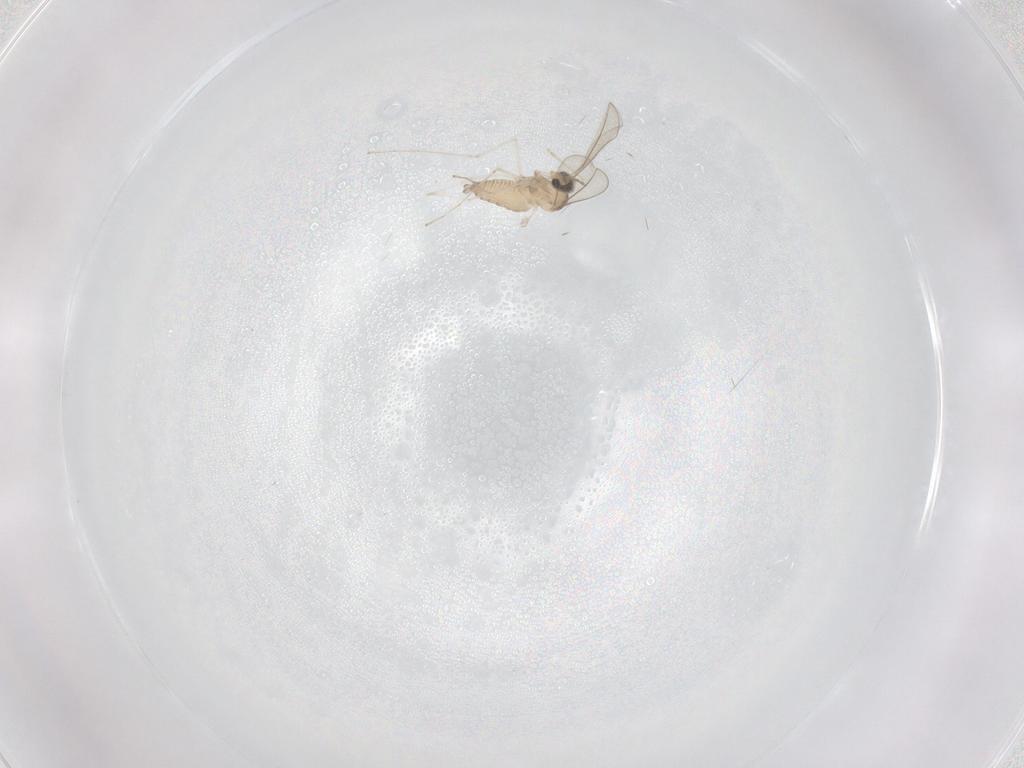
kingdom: Animalia
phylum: Arthropoda
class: Insecta
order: Diptera
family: Cecidomyiidae
